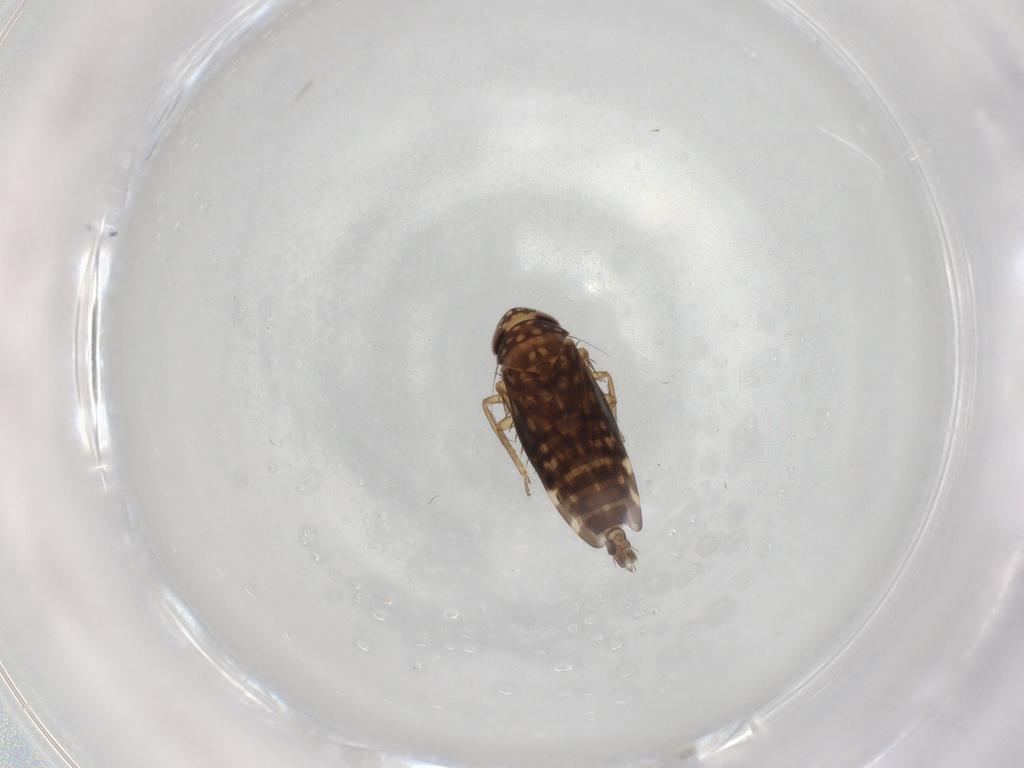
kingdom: Animalia
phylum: Arthropoda
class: Insecta
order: Hemiptera
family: Cicadellidae
